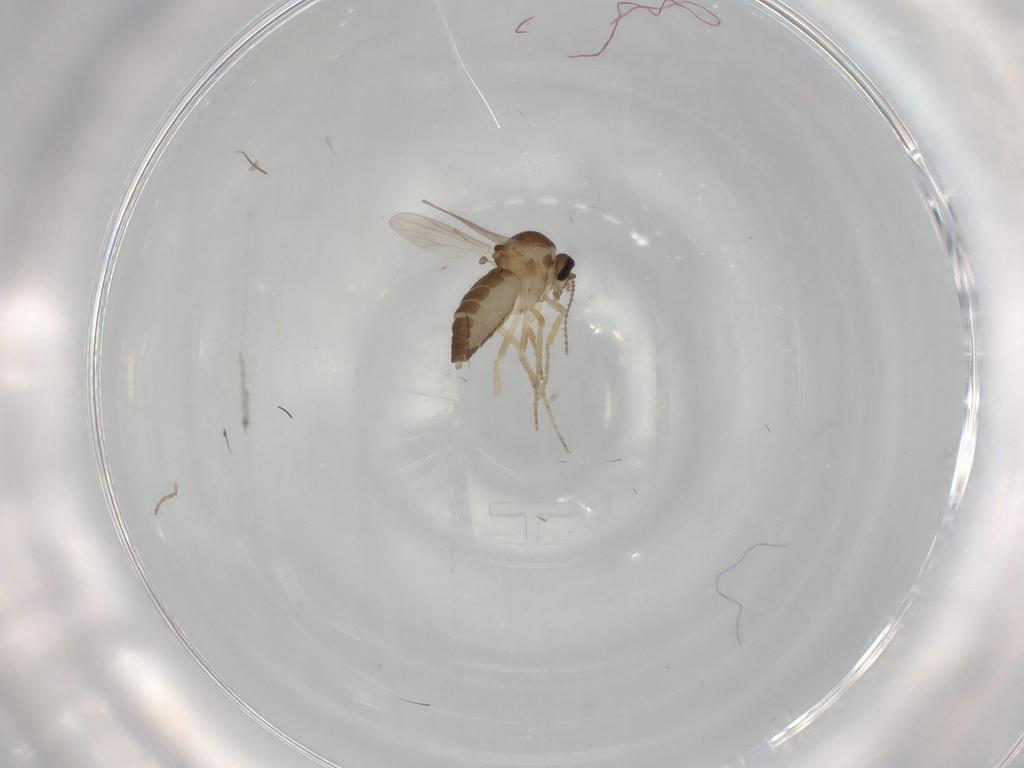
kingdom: Animalia
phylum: Arthropoda
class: Insecta
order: Diptera
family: Ceratopogonidae
